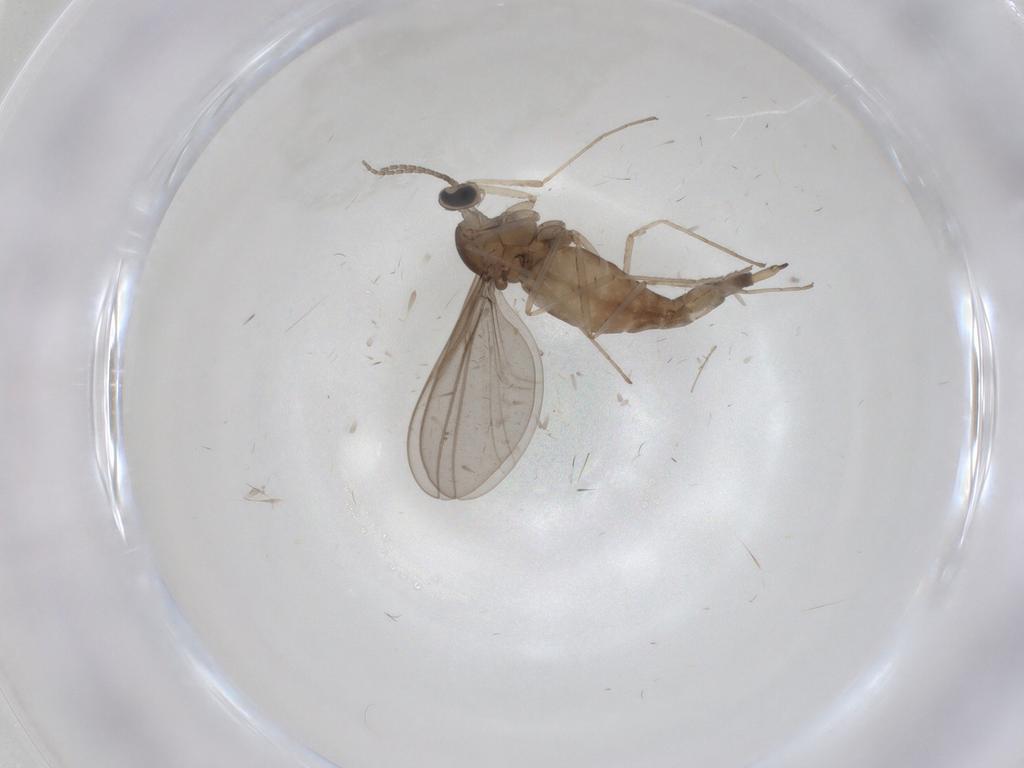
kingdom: Animalia
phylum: Arthropoda
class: Insecta
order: Diptera
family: Cecidomyiidae
